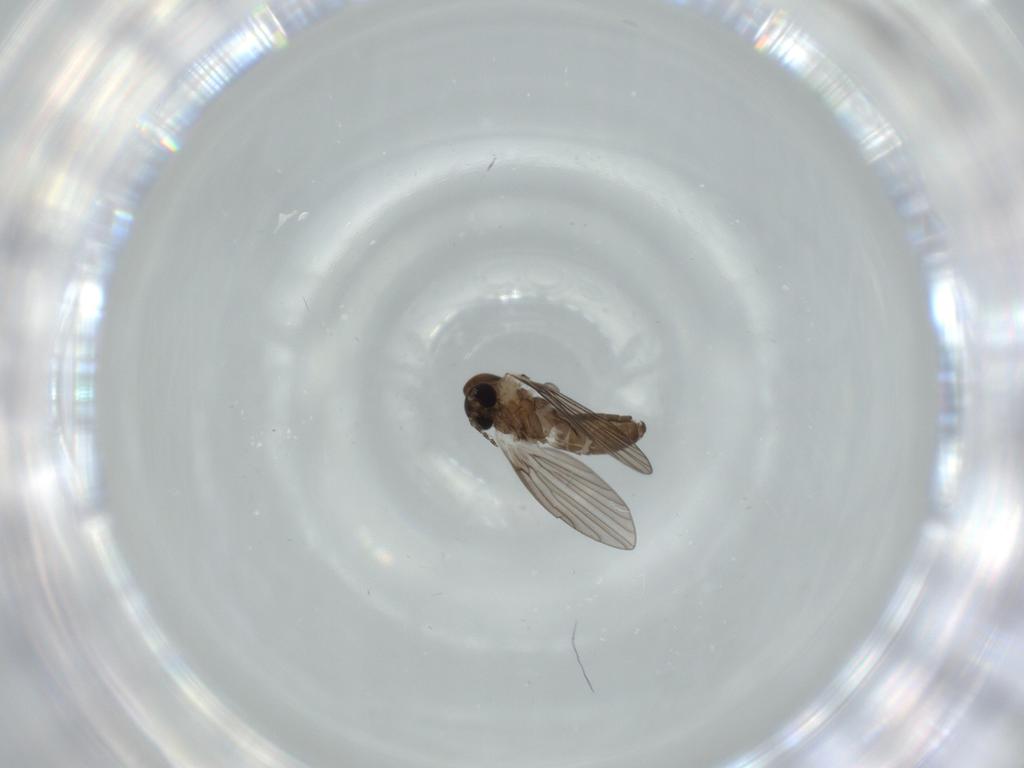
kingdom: Animalia
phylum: Arthropoda
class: Insecta
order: Diptera
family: Psychodidae
